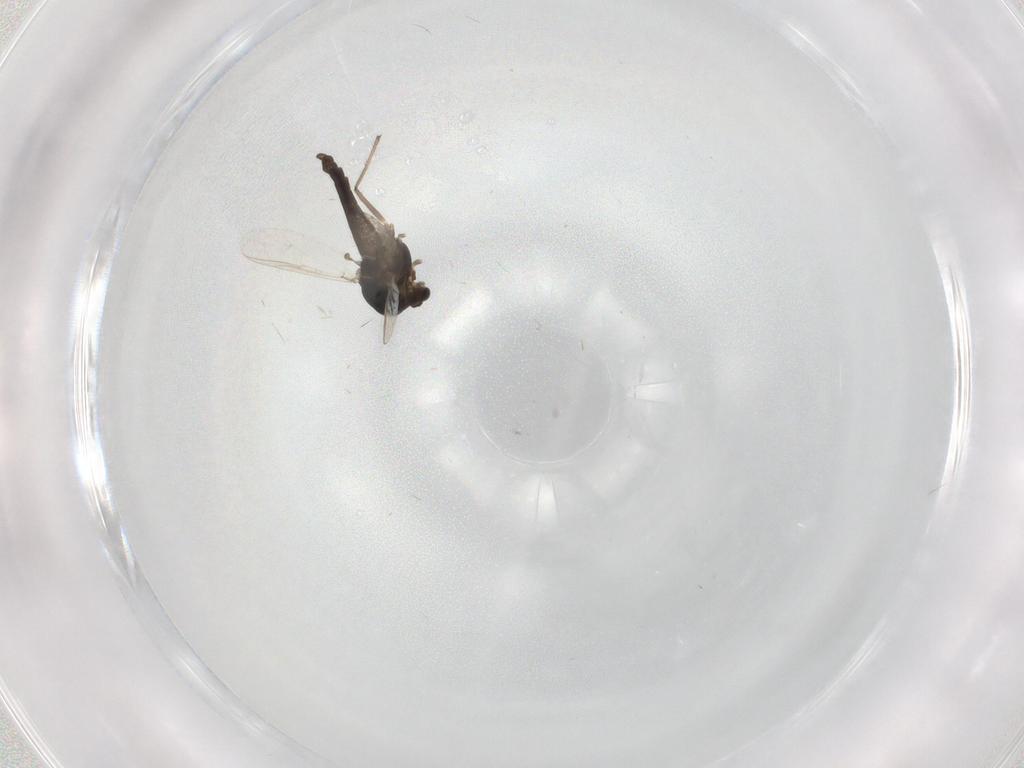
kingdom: Animalia
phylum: Arthropoda
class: Insecta
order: Diptera
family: Chironomidae
